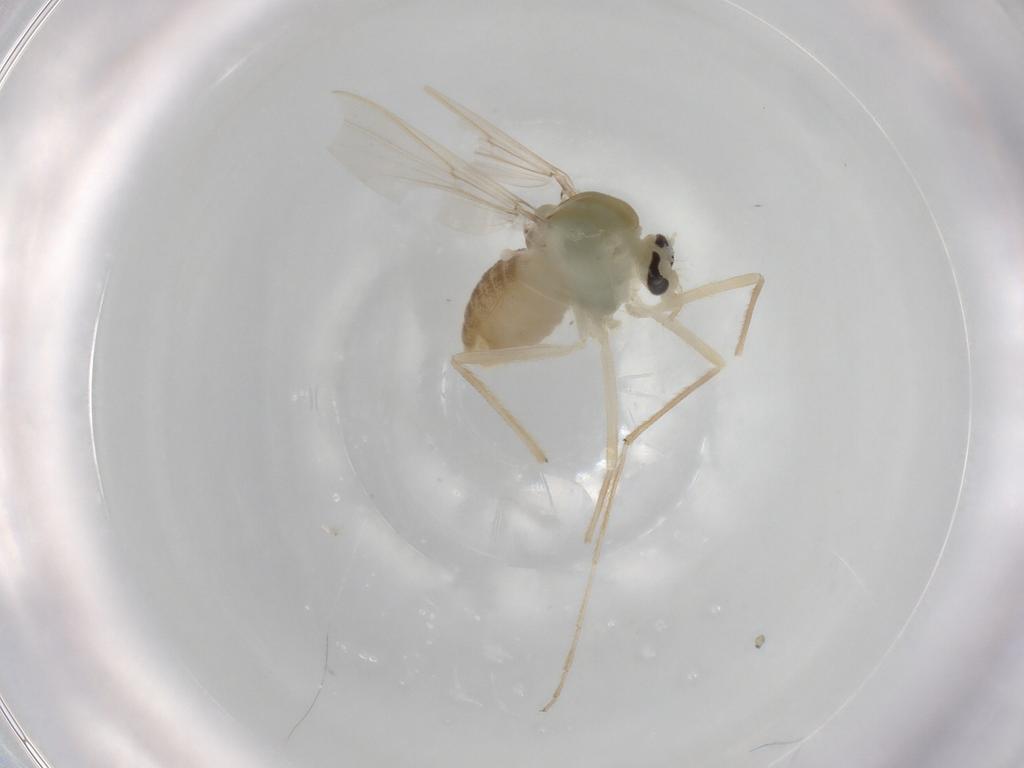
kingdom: Animalia
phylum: Arthropoda
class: Insecta
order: Diptera
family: Chironomidae
